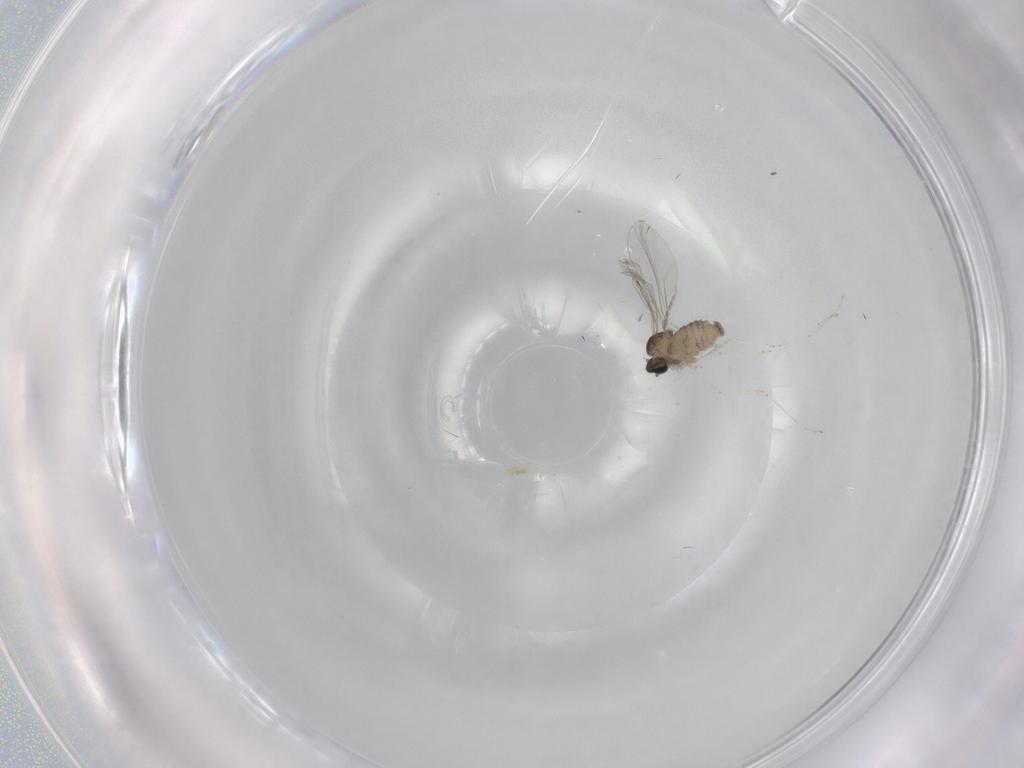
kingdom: Animalia
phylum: Arthropoda
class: Insecta
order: Diptera
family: Cecidomyiidae
